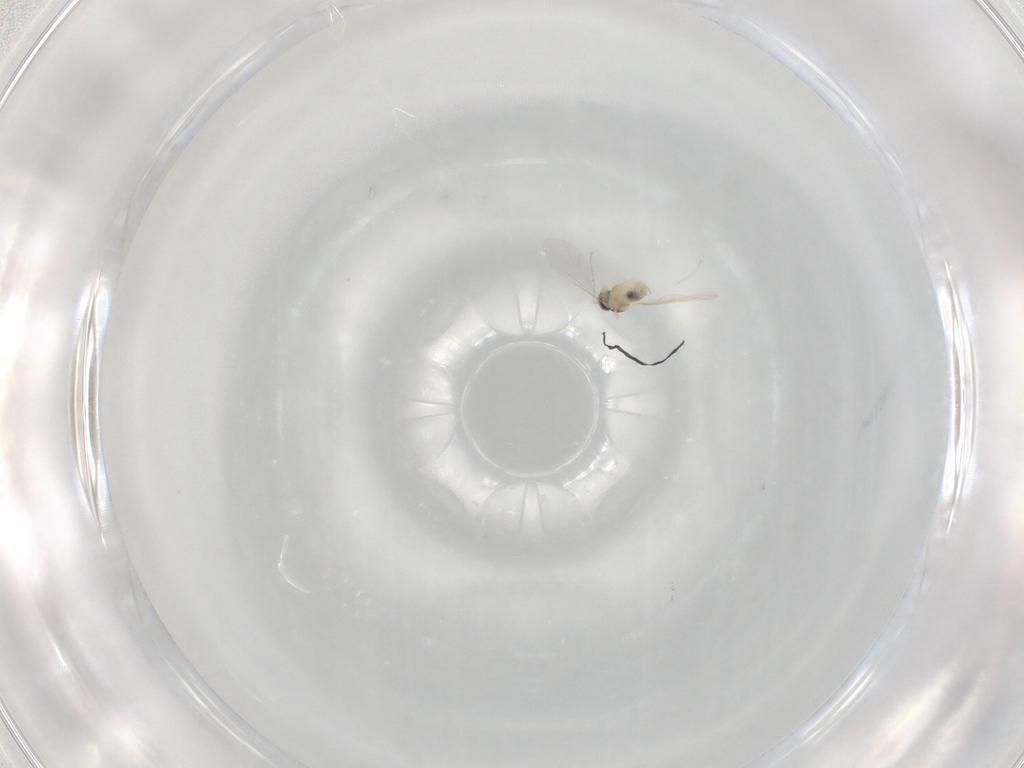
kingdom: Animalia
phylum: Arthropoda
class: Insecta
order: Diptera
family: Cecidomyiidae
